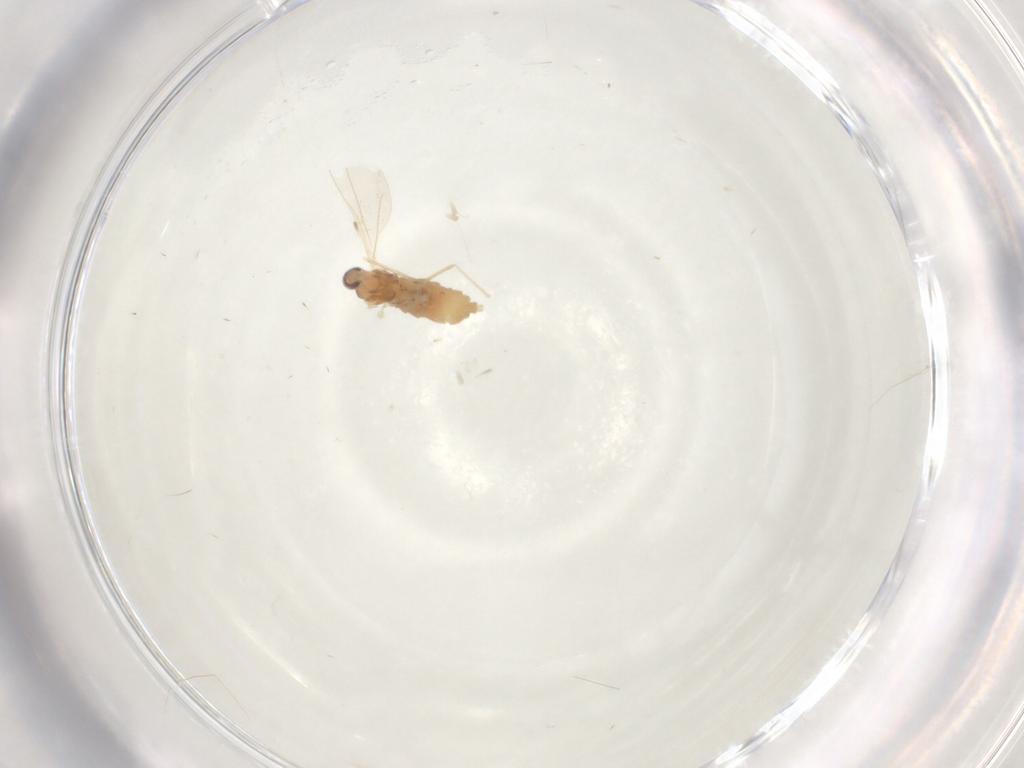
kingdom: Animalia
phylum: Arthropoda
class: Insecta
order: Diptera
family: Cecidomyiidae
